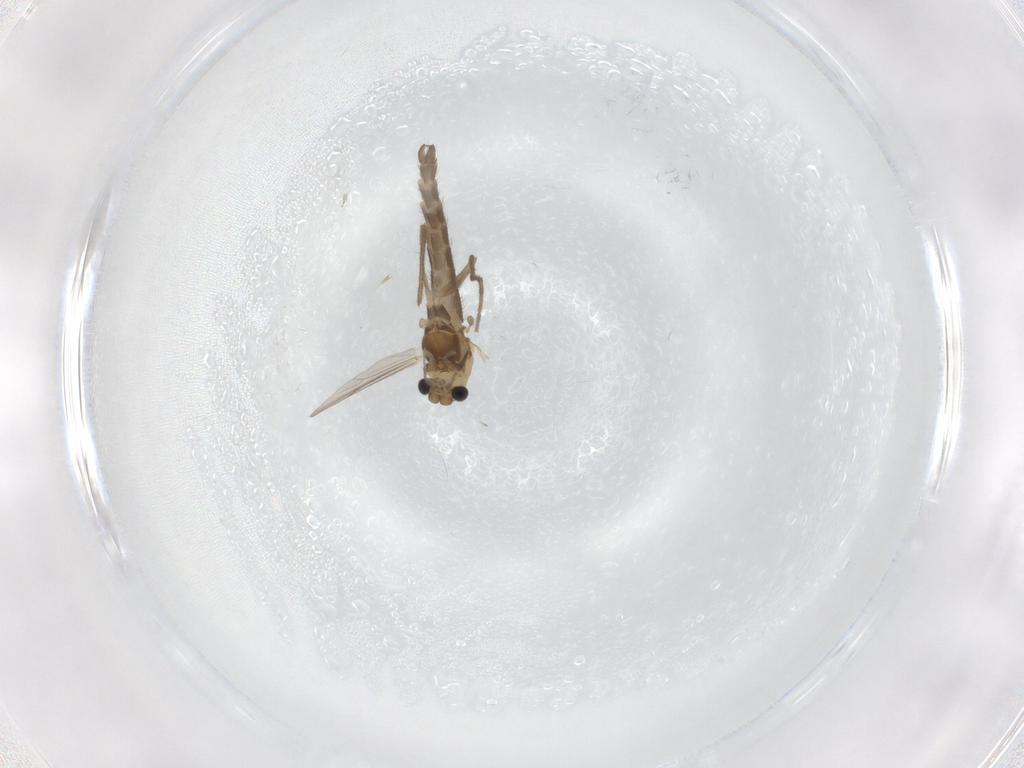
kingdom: Animalia
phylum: Arthropoda
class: Insecta
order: Diptera
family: Chironomidae
